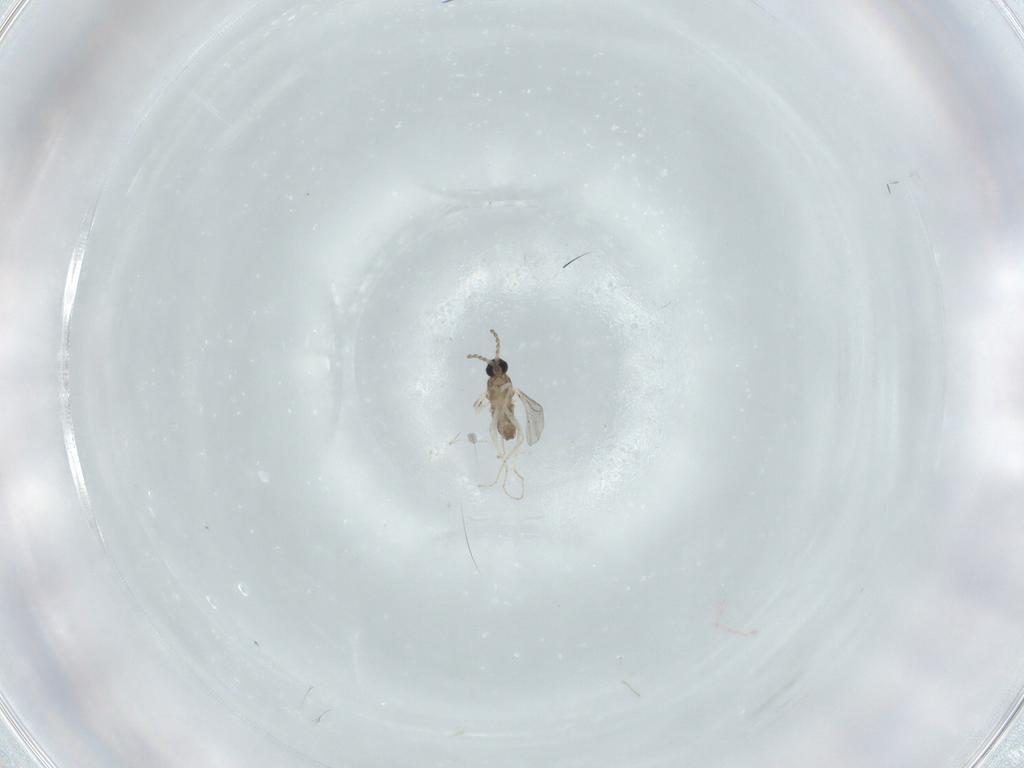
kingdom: Animalia
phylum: Arthropoda
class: Insecta
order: Diptera
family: Cecidomyiidae
